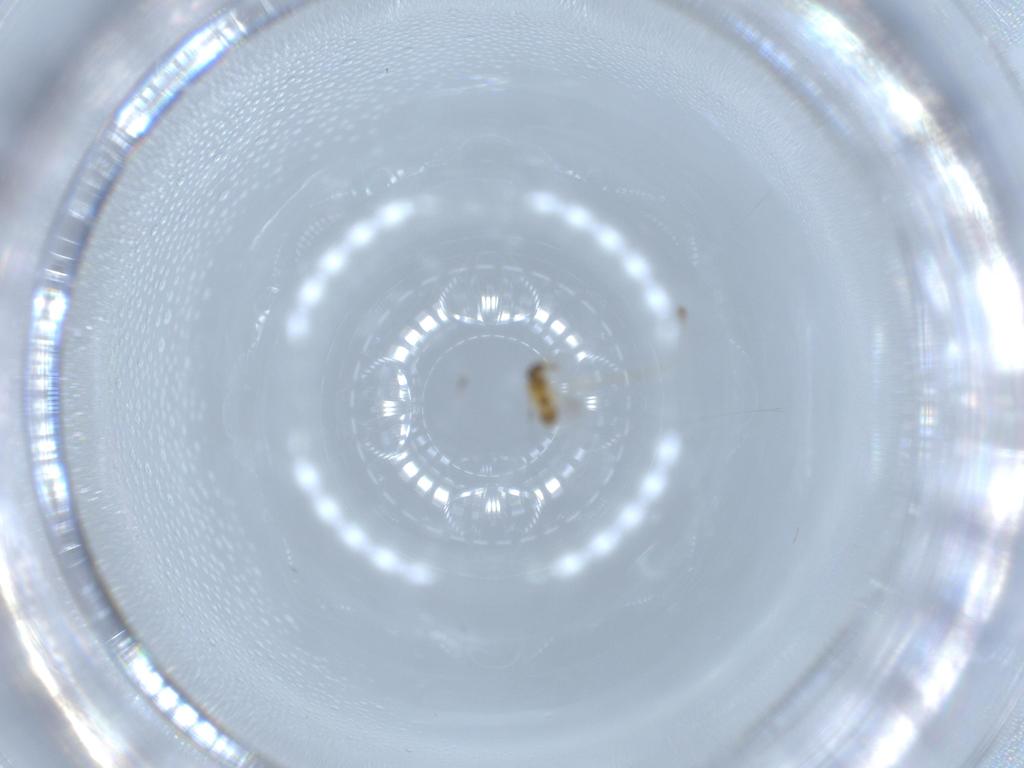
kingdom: Animalia
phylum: Arthropoda
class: Insecta
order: Hymenoptera
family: Platygastridae
